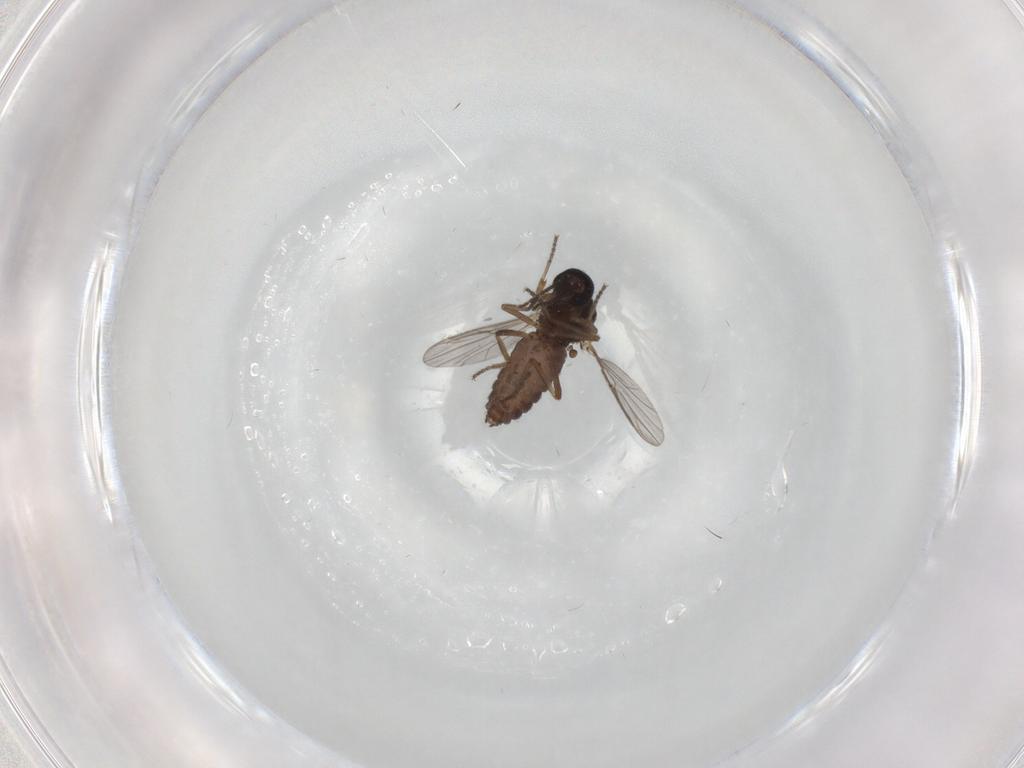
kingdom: Animalia
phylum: Arthropoda
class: Insecta
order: Diptera
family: Ceratopogonidae
